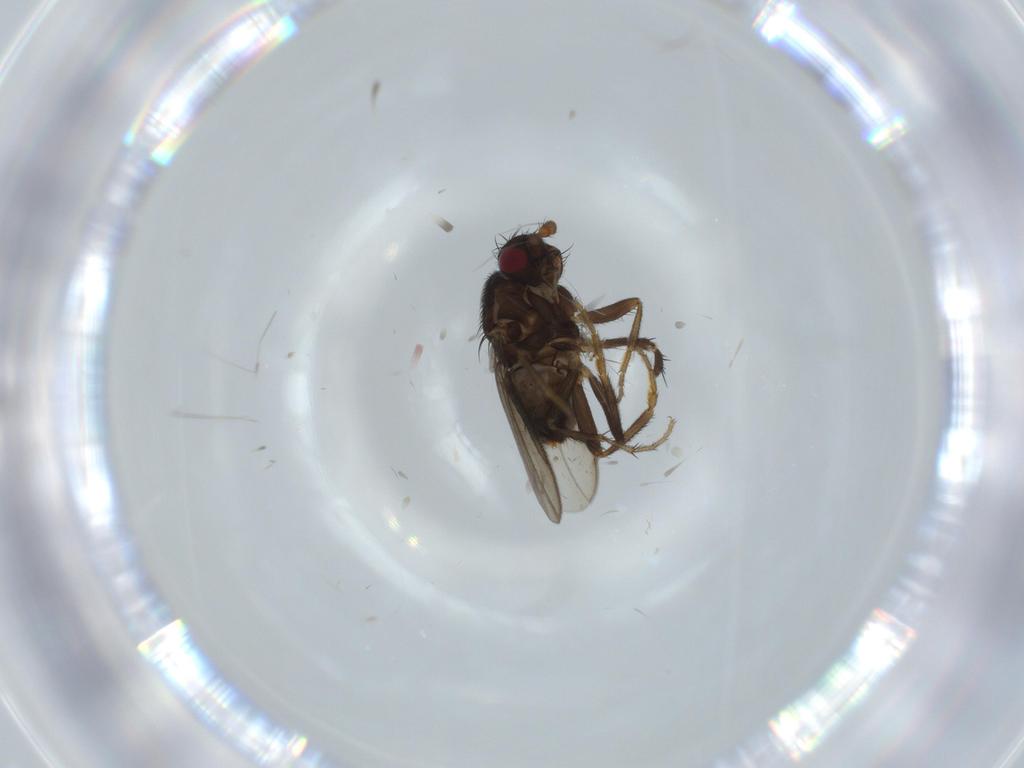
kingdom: Animalia
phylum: Arthropoda
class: Insecta
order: Diptera
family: Sphaeroceridae
